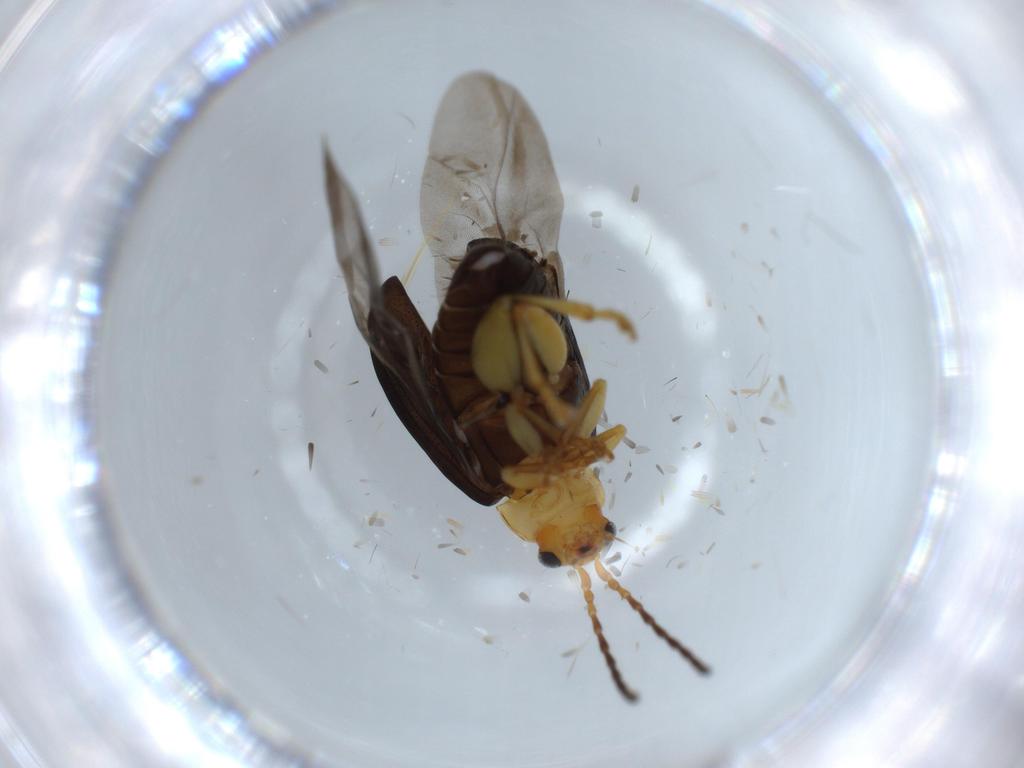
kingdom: Animalia
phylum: Arthropoda
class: Insecta
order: Coleoptera
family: Chrysomelidae
